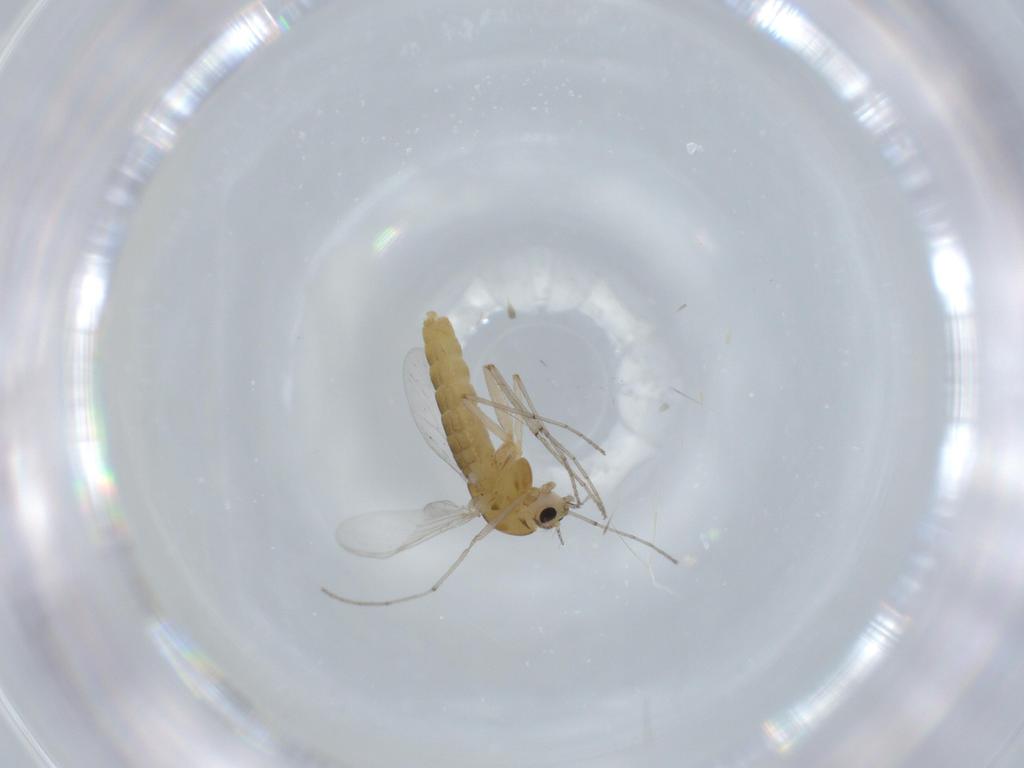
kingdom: Animalia
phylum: Arthropoda
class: Insecta
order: Diptera
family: Chironomidae
